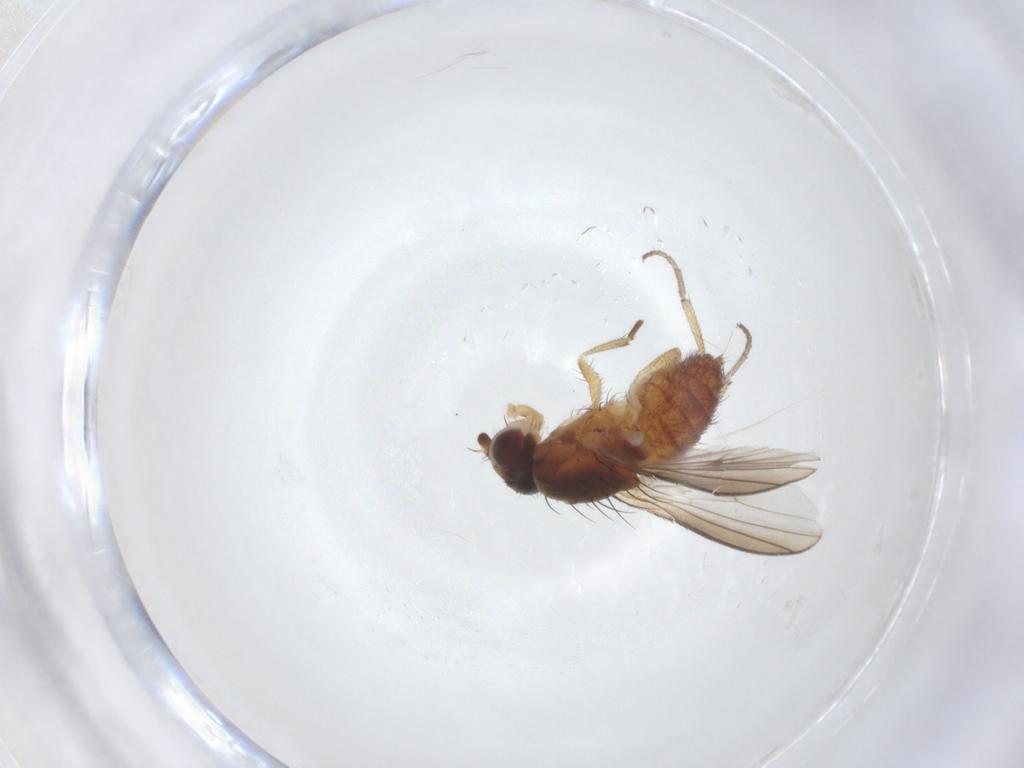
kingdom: Animalia
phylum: Arthropoda
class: Insecta
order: Diptera
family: Heleomyzidae
